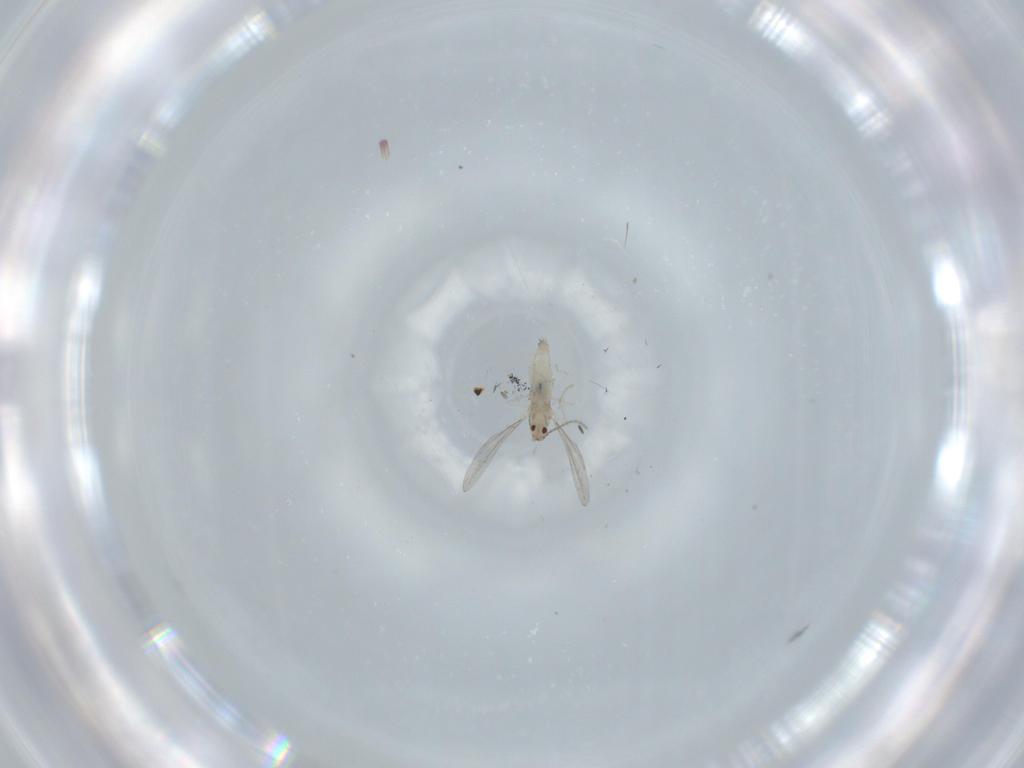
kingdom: Animalia
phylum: Arthropoda
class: Insecta
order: Diptera
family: Cecidomyiidae
